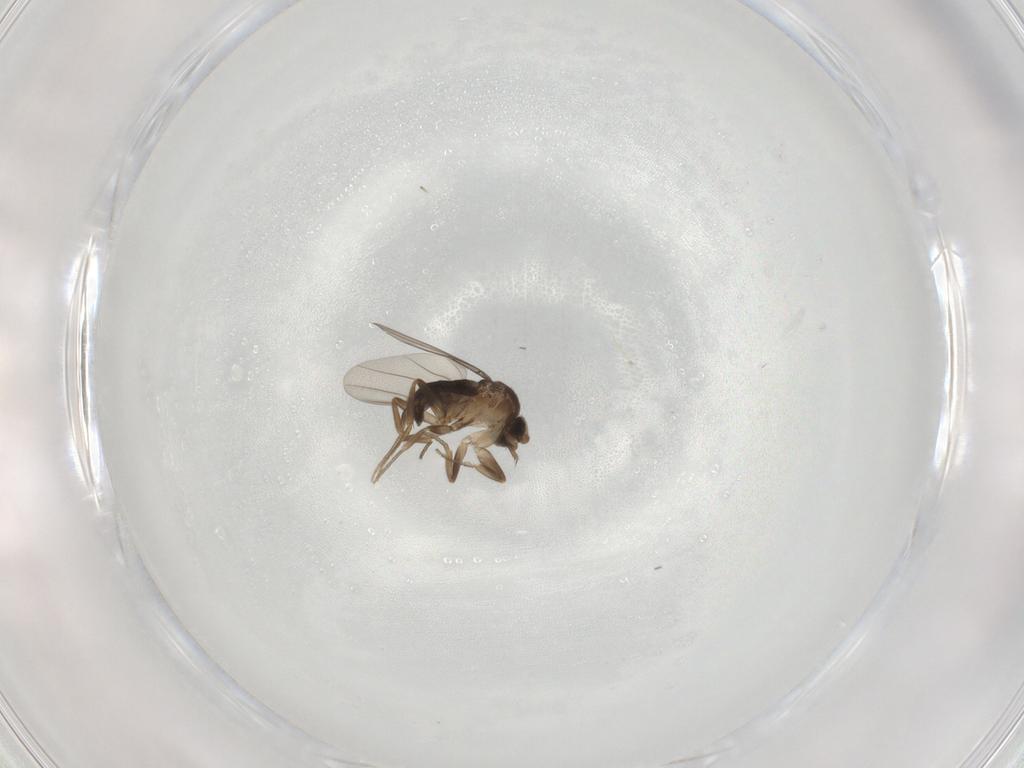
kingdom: Animalia
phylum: Arthropoda
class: Insecta
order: Diptera
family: Phoridae
